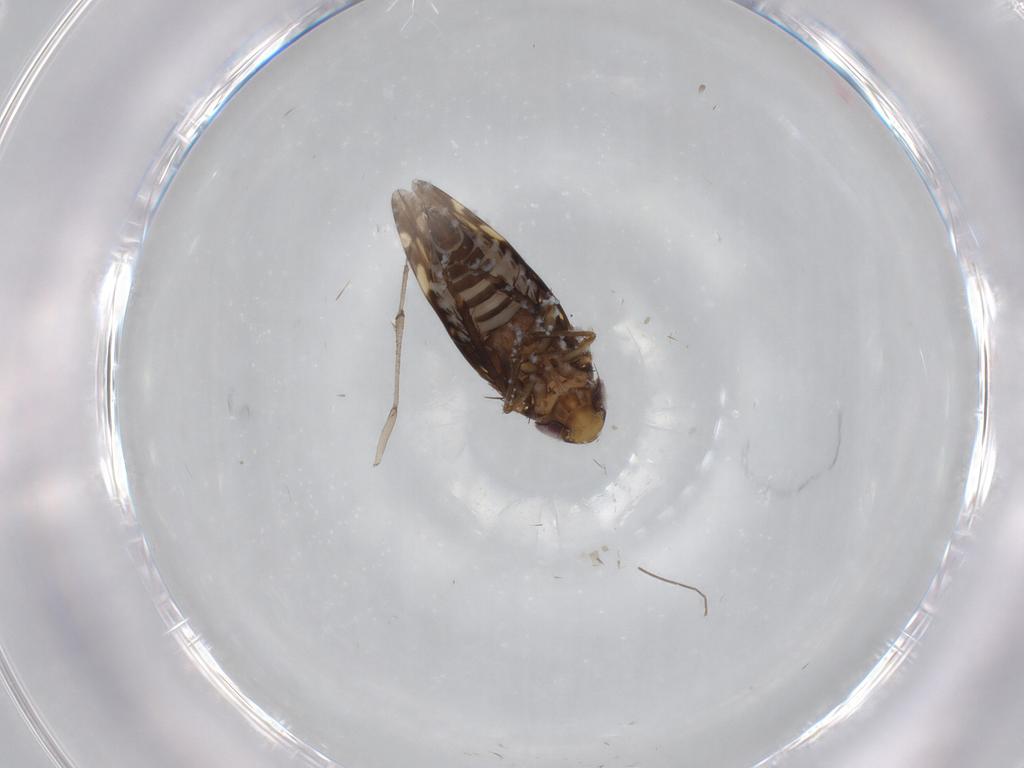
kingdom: Animalia
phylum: Arthropoda
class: Insecta
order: Hemiptera
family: Cicadellidae
